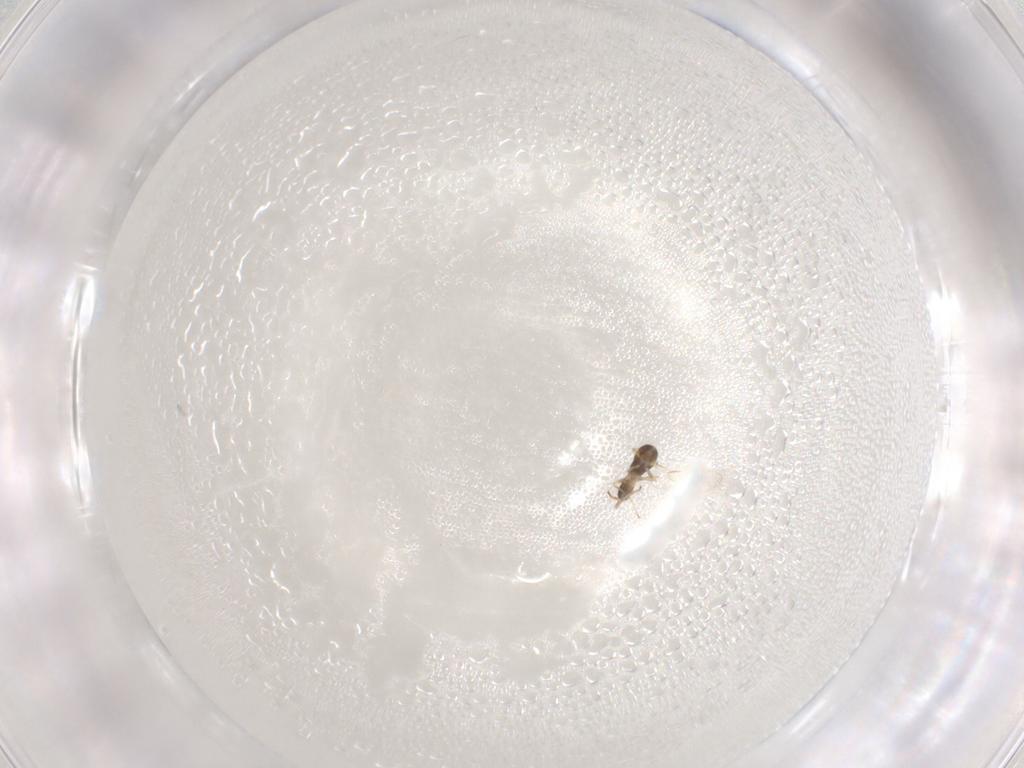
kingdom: Animalia
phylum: Arthropoda
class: Insecta
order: Hymenoptera
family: Eulophidae
